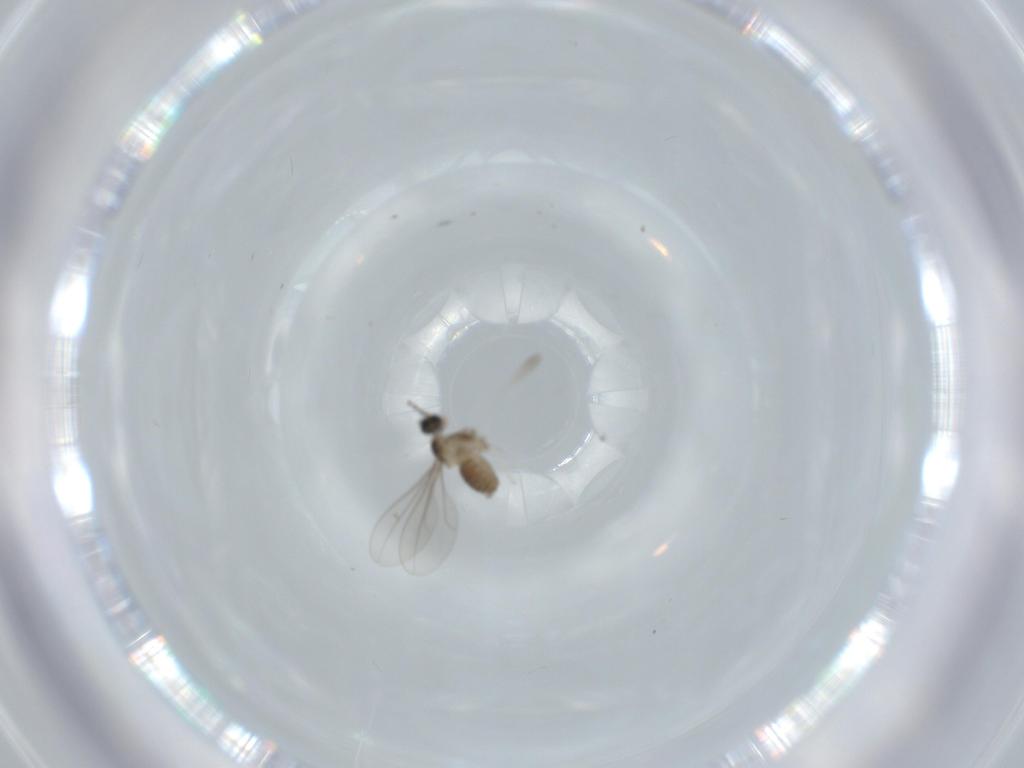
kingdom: Animalia
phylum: Arthropoda
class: Insecta
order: Diptera
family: Cecidomyiidae
